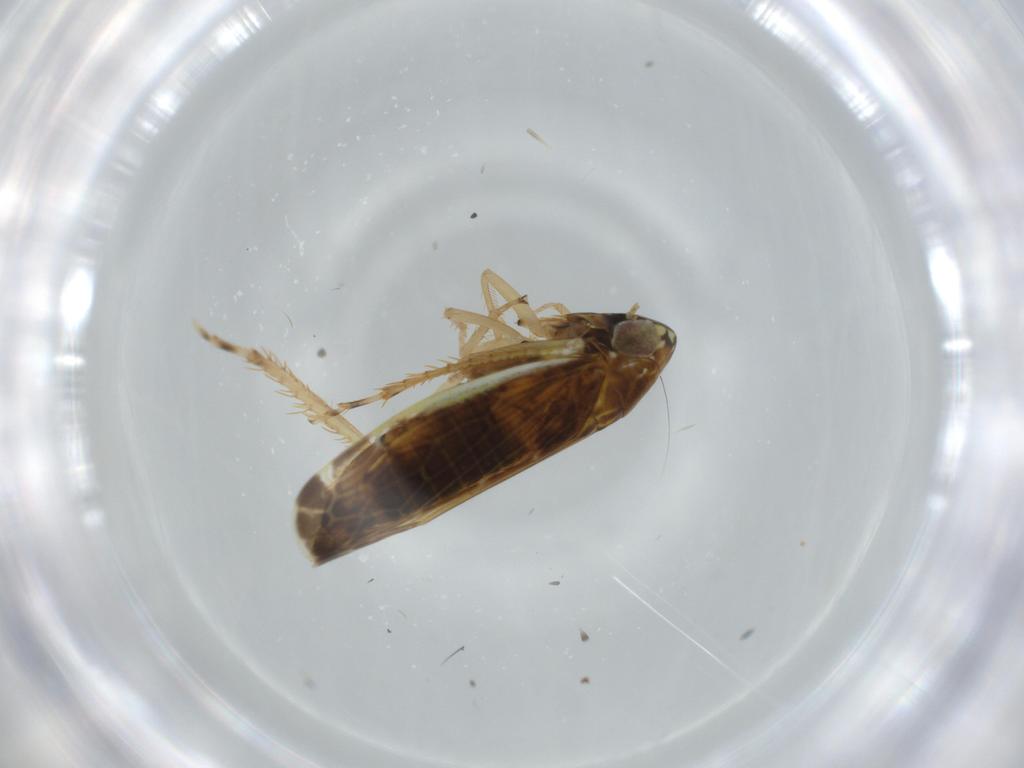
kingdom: Animalia
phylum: Arthropoda
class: Insecta
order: Hemiptera
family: Cicadellidae
